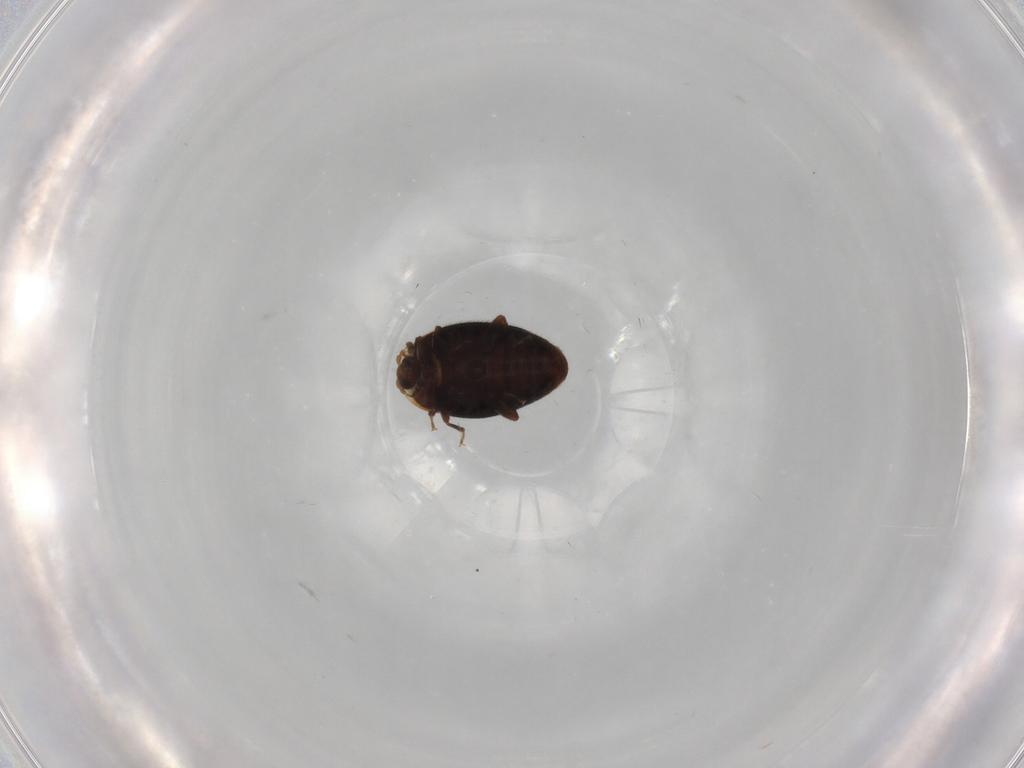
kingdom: Animalia
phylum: Arthropoda
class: Insecta
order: Coleoptera
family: Corylophidae
